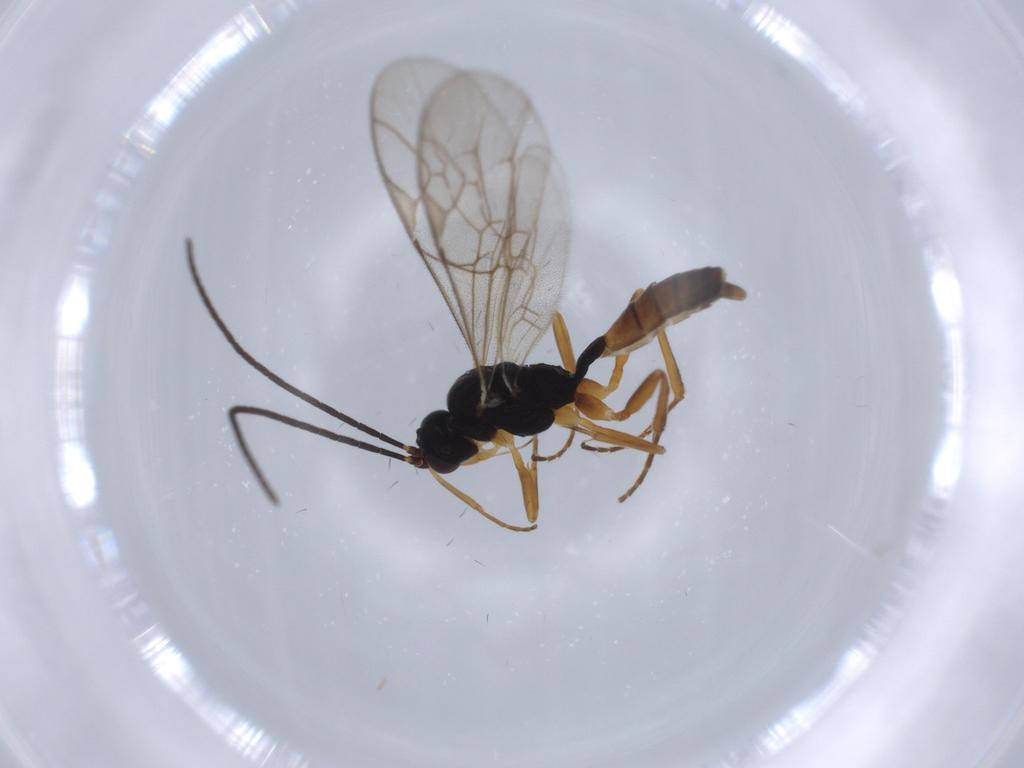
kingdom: Animalia
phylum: Arthropoda
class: Insecta
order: Hymenoptera
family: Ichneumonidae
